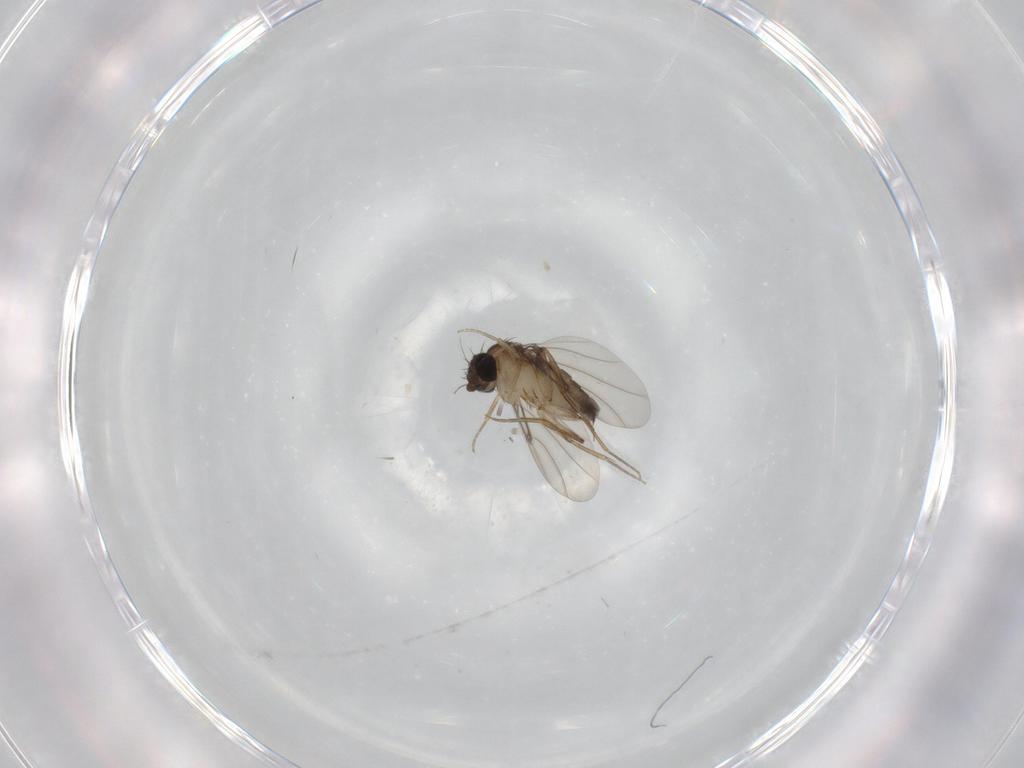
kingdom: Animalia
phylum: Arthropoda
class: Insecta
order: Diptera
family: Phoridae
